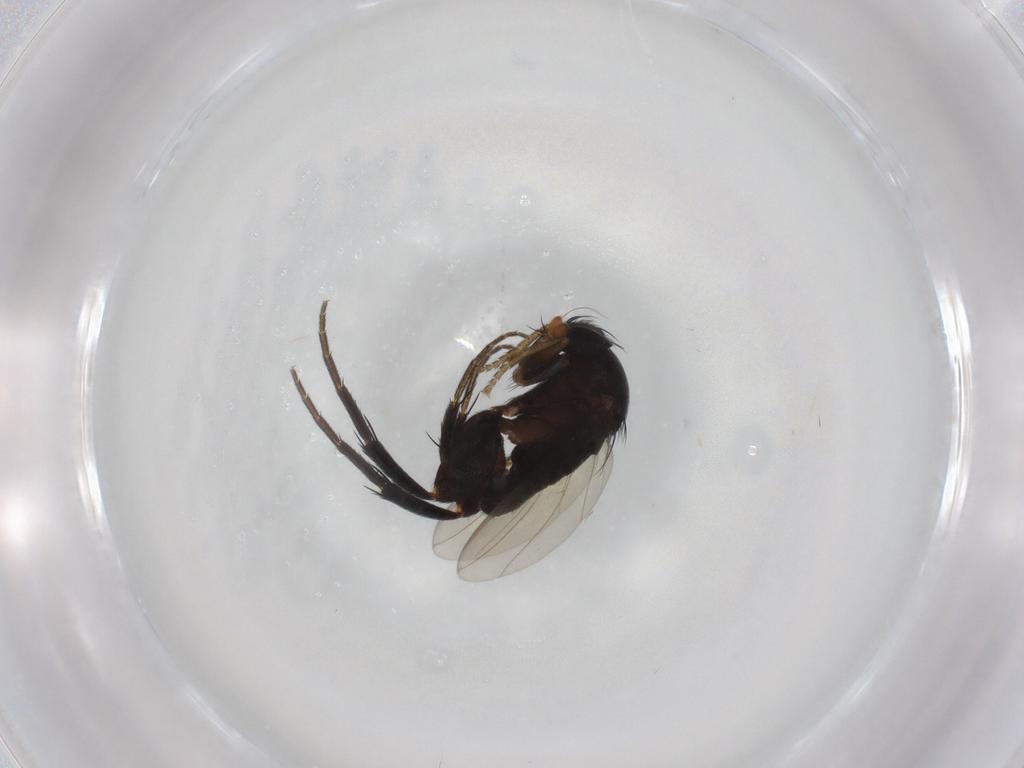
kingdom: Animalia
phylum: Arthropoda
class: Insecta
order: Diptera
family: Phoridae
